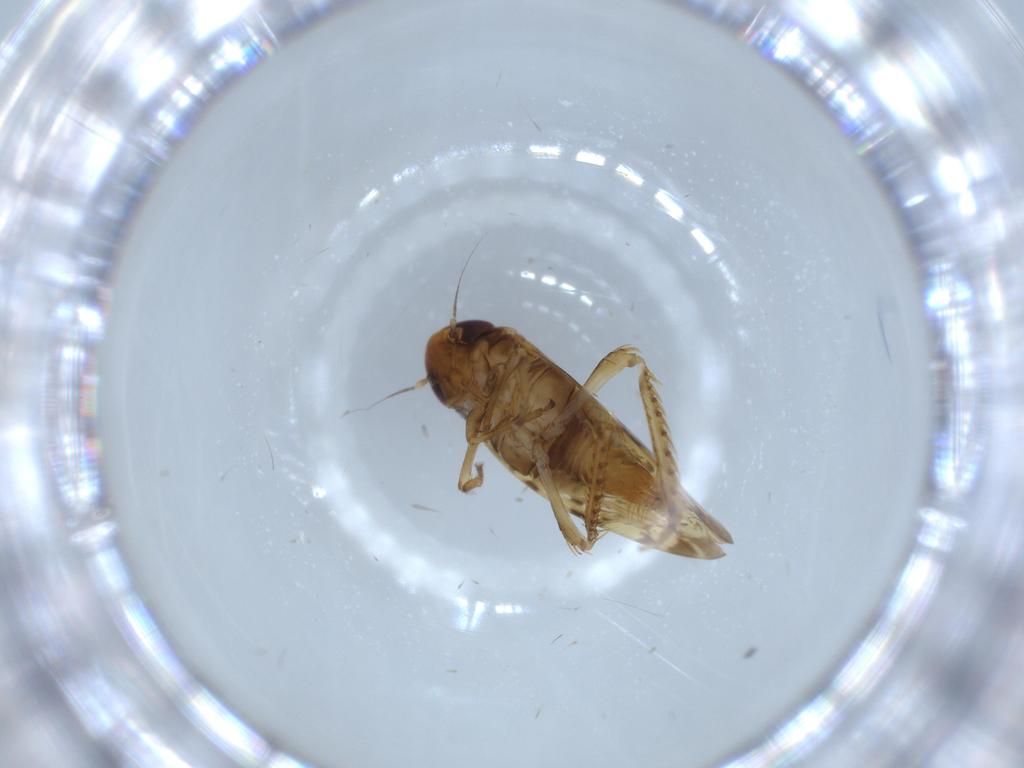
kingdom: Animalia
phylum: Arthropoda
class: Insecta
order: Hemiptera
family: Cicadellidae
